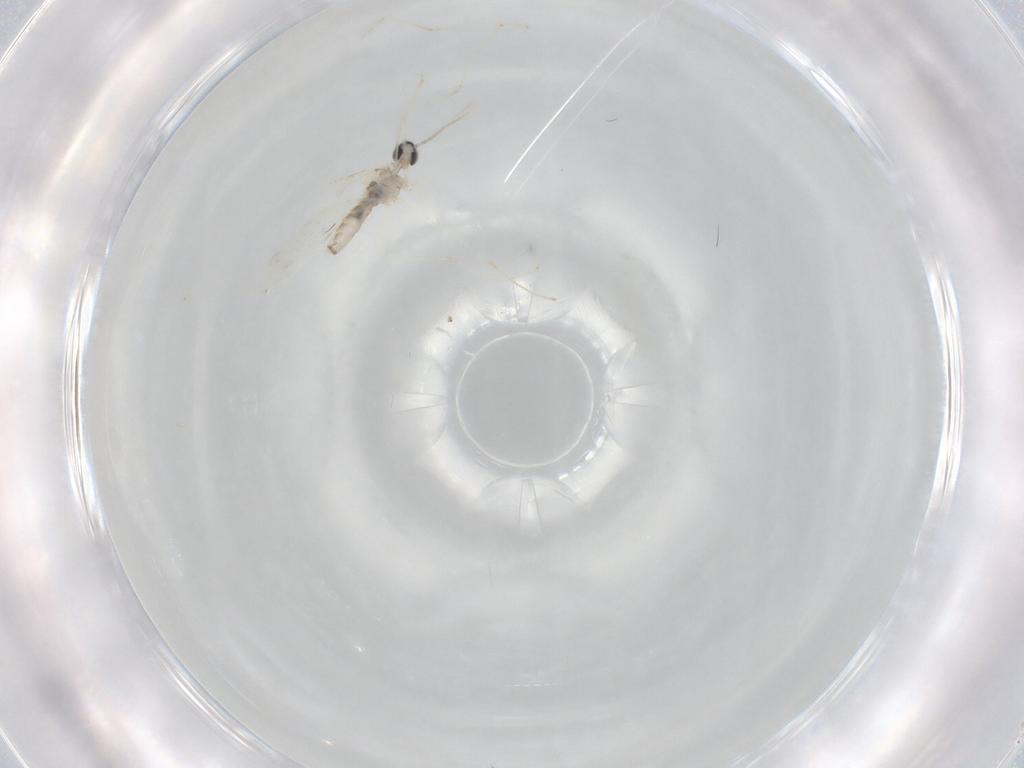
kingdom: Animalia
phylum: Arthropoda
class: Insecta
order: Diptera
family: Cecidomyiidae
